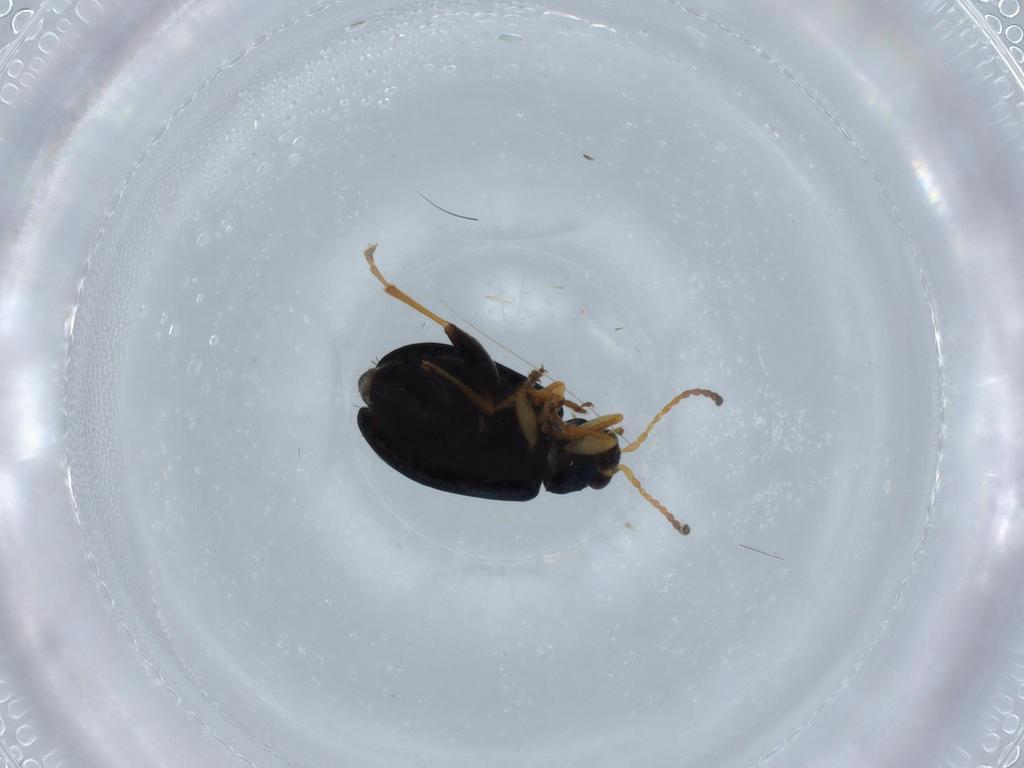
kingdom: Animalia
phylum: Arthropoda
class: Insecta
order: Coleoptera
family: Chrysomelidae
